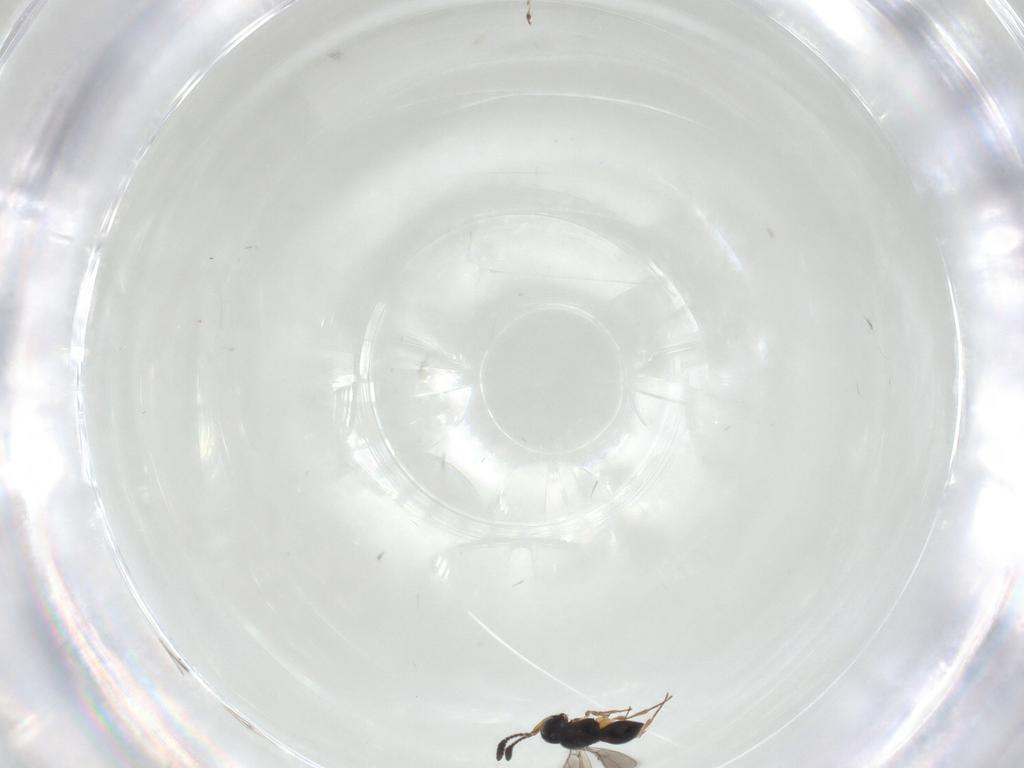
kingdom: Animalia
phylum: Arthropoda
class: Insecta
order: Hymenoptera
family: Scelionidae
